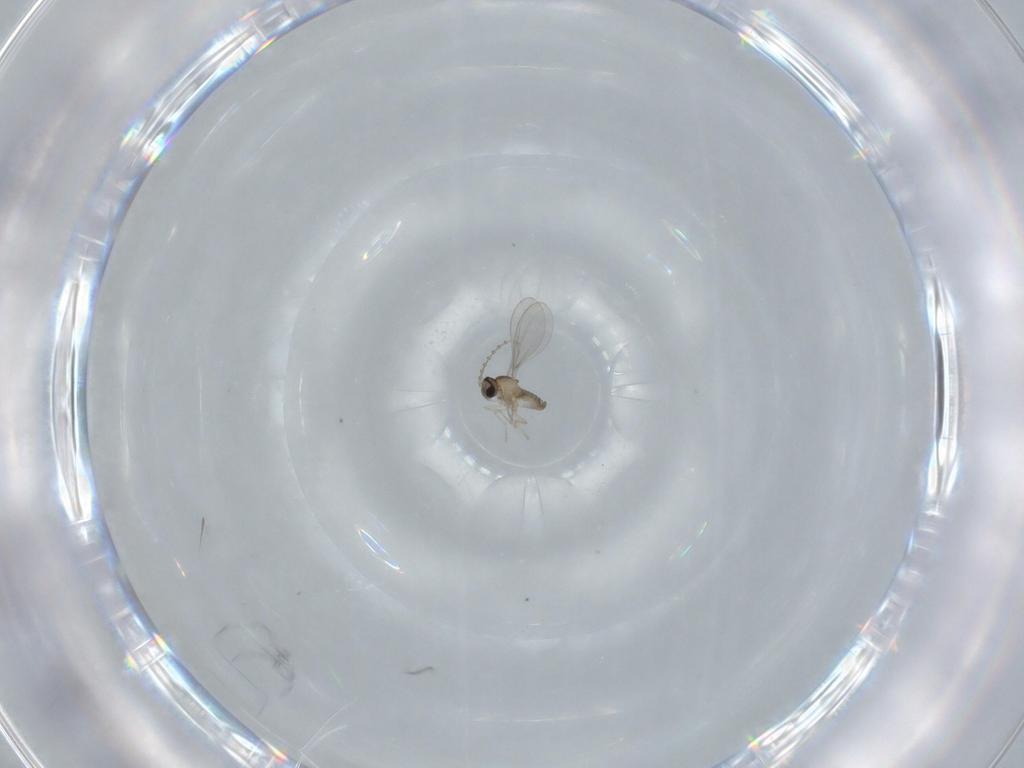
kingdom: Animalia
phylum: Arthropoda
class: Insecta
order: Diptera
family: Cecidomyiidae
